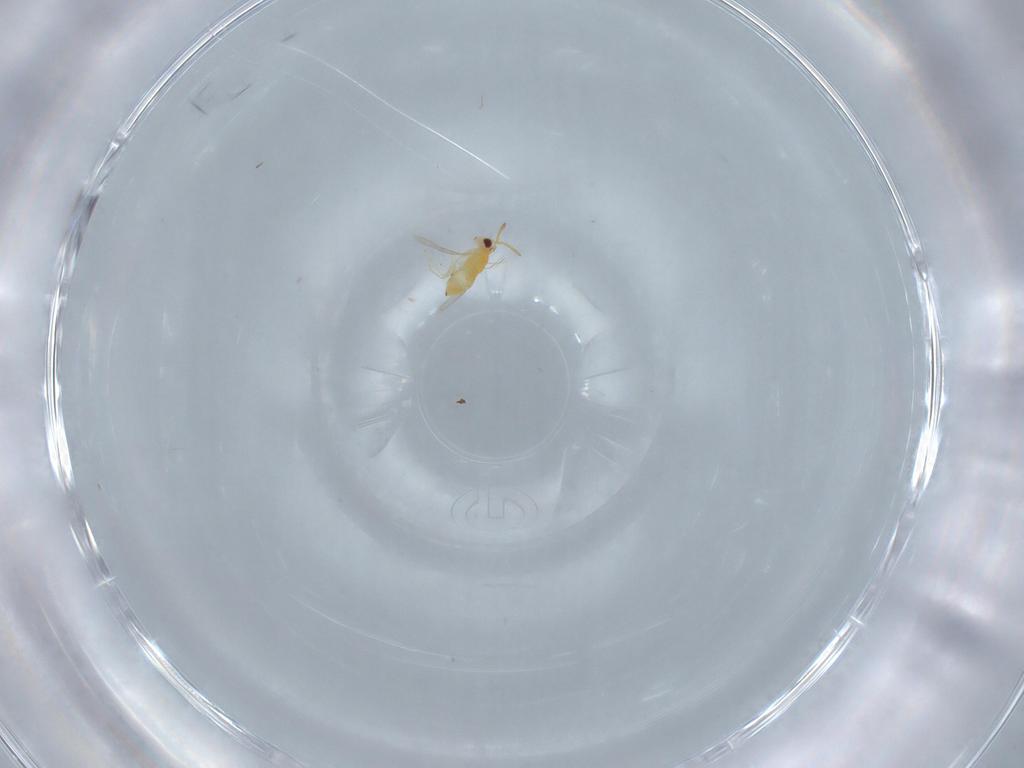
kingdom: Animalia
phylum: Arthropoda
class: Insecta
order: Hymenoptera
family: Aphelinidae
